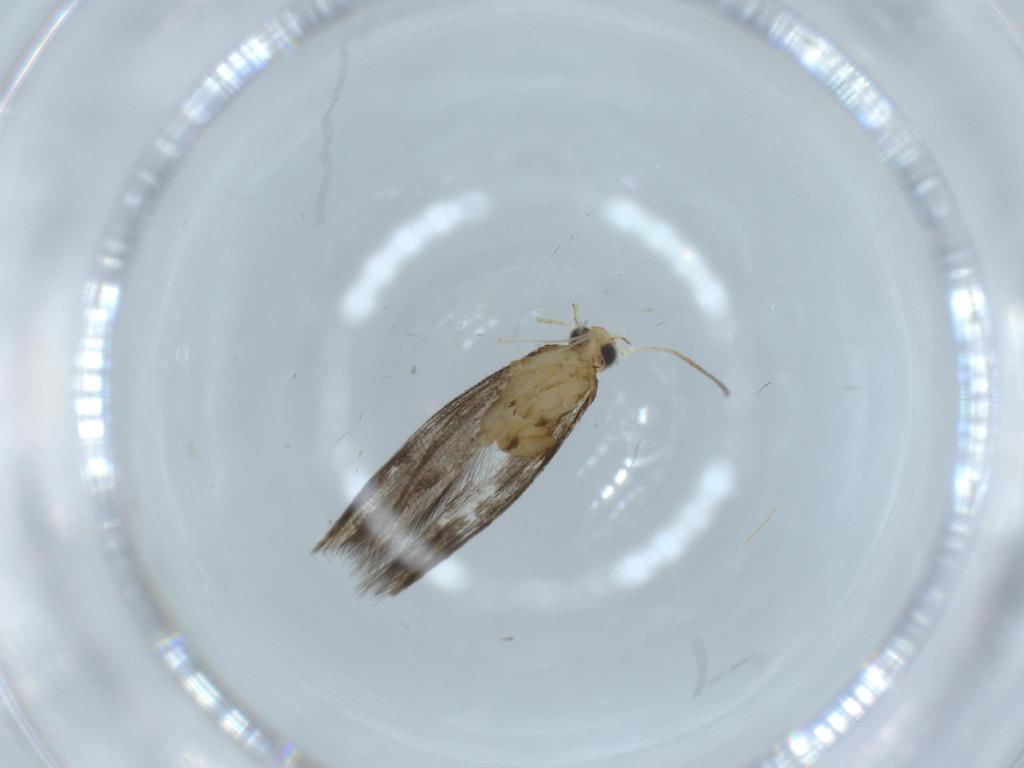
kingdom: Animalia
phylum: Arthropoda
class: Insecta
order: Lepidoptera
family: Argyresthiidae
